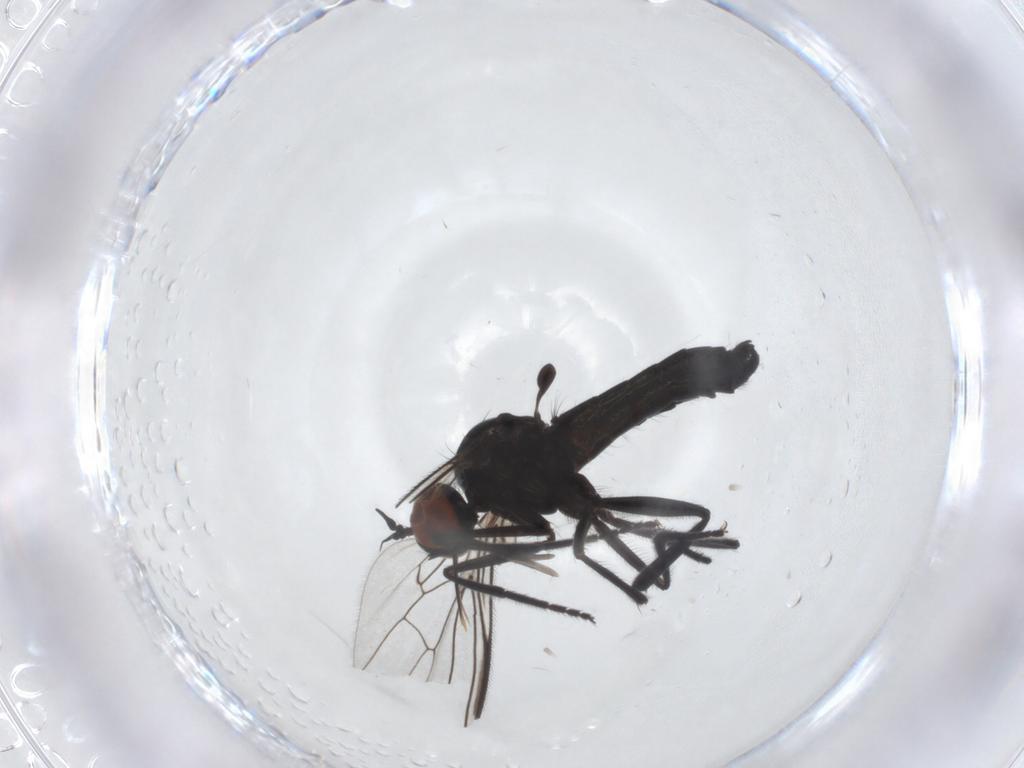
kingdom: Animalia
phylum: Arthropoda
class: Insecta
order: Diptera
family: Empididae
